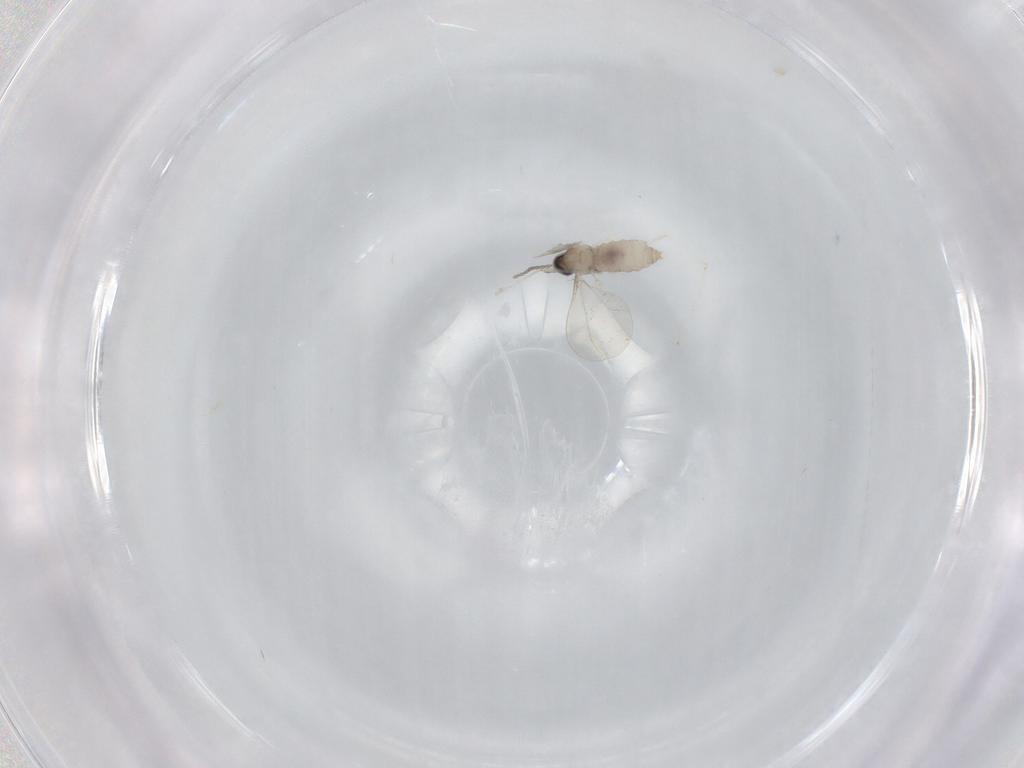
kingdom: Animalia
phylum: Arthropoda
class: Insecta
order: Diptera
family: Cecidomyiidae
